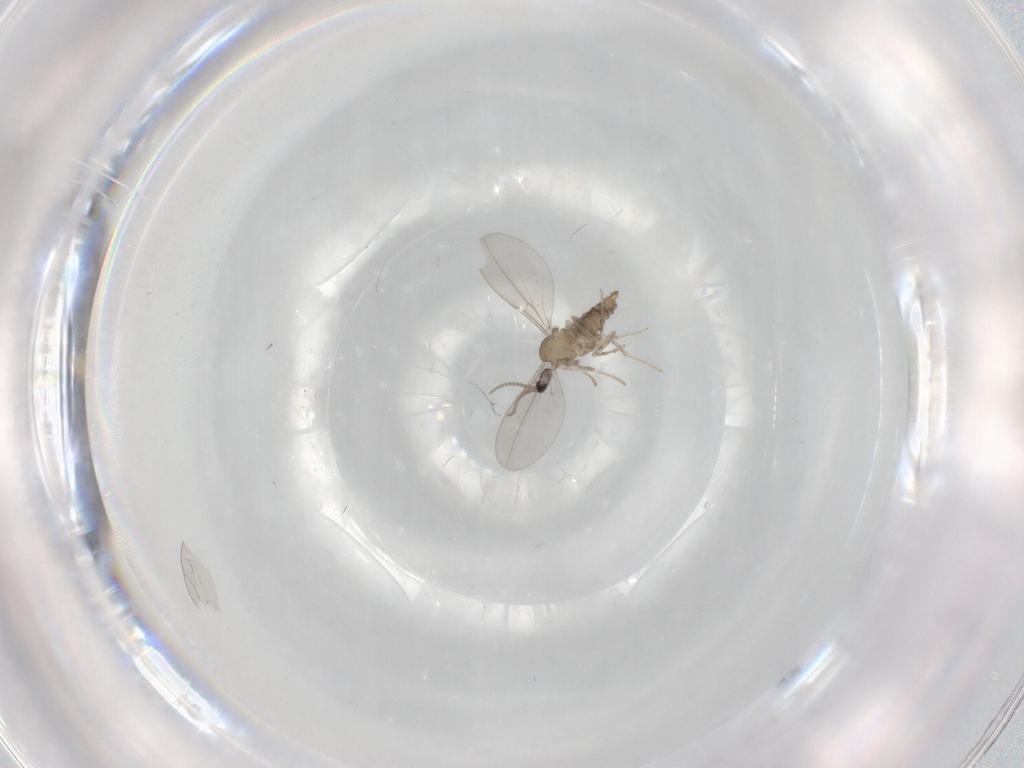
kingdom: Animalia
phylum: Arthropoda
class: Insecta
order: Diptera
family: Cecidomyiidae
